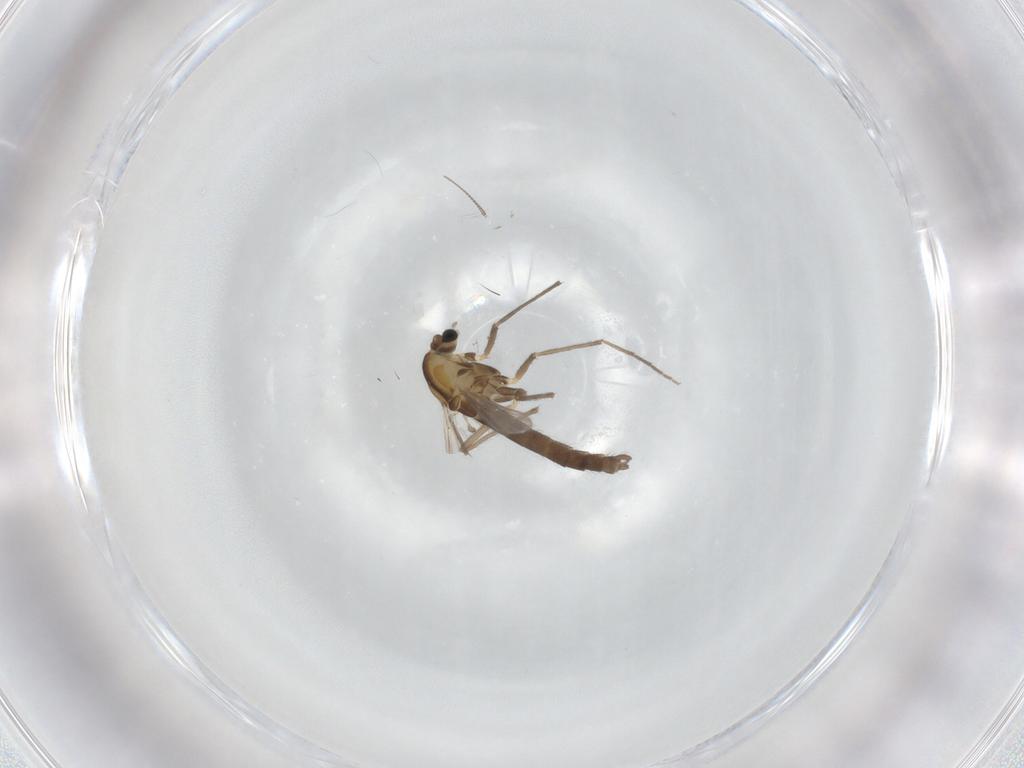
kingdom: Animalia
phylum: Arthropoda
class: Insecta
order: Diptera
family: Chironomidae
